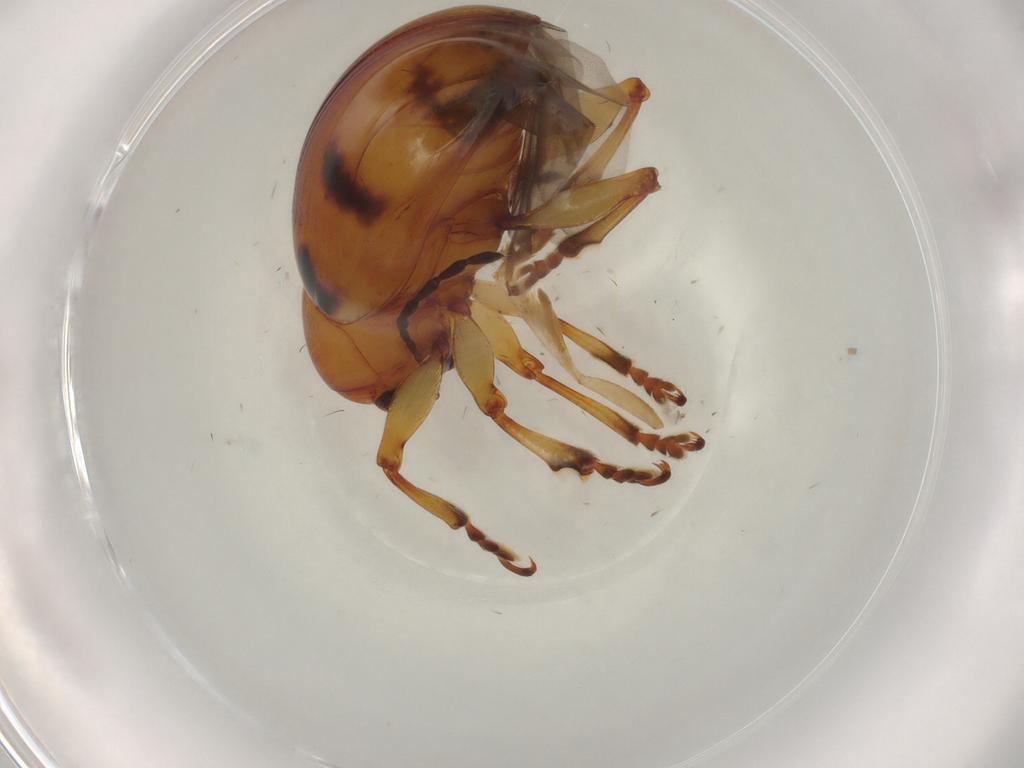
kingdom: Animalia
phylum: Arthropoda
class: Insecta
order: Coleoptera
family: Chrysomelidae
